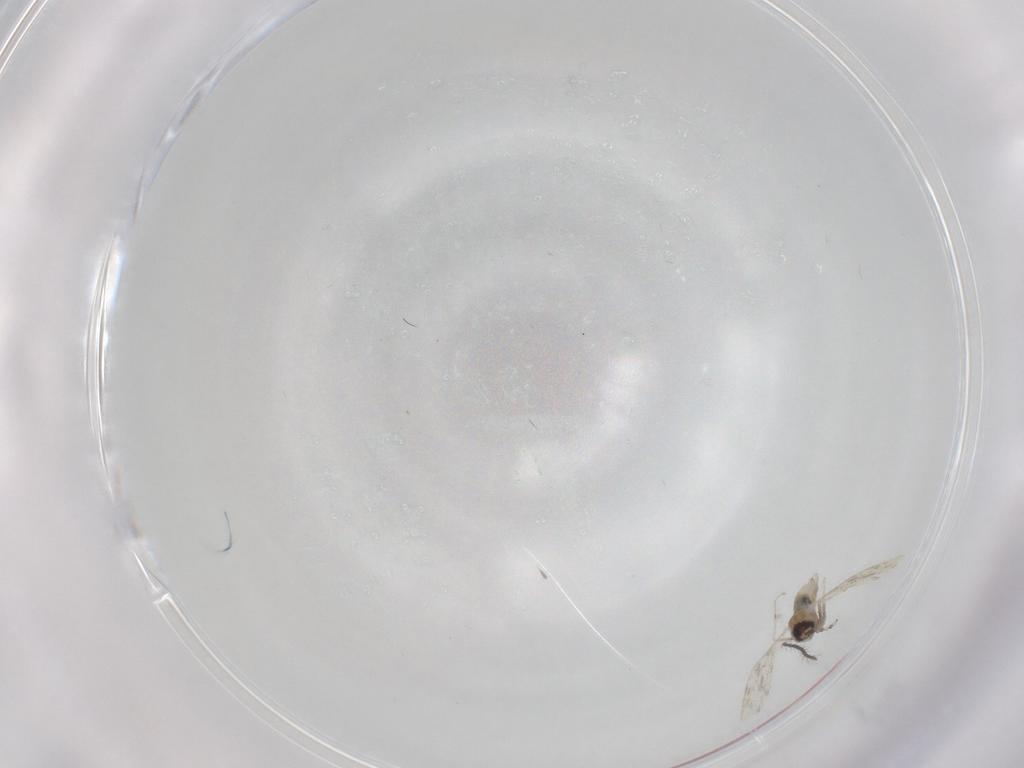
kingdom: Animalia
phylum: Arthropoda
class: Insecta
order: Diptera
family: Cecidomyiidae
